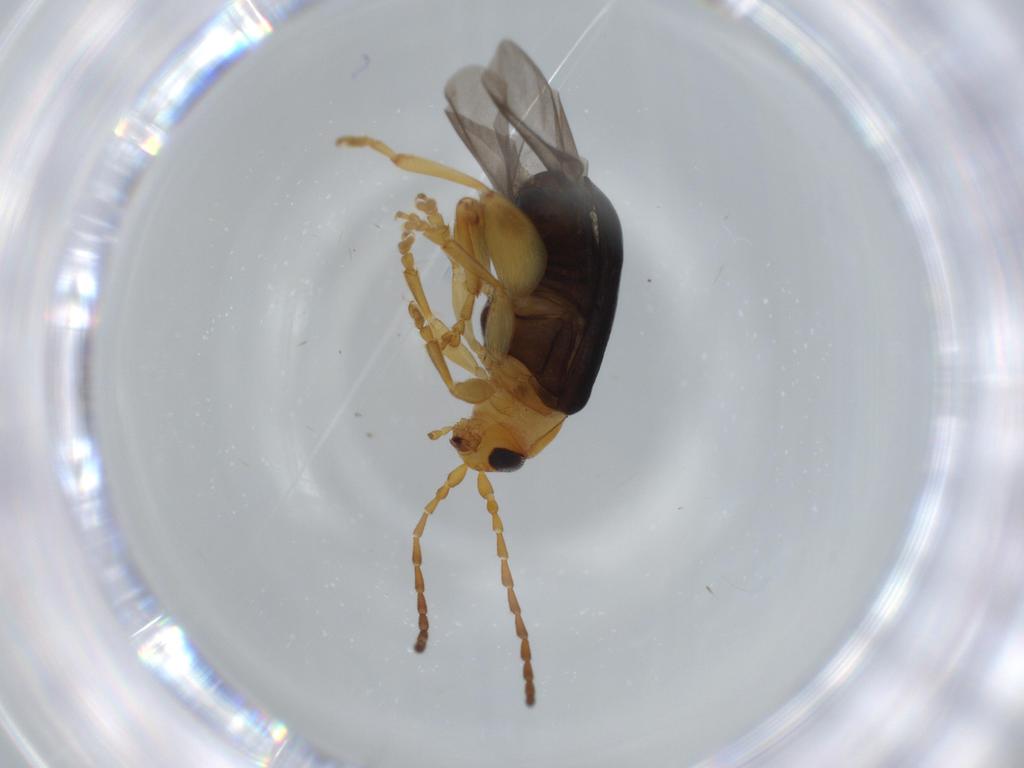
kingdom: Animalia
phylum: Arthropoda
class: Insecta
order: Coleoptera
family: Chrysomelidae
